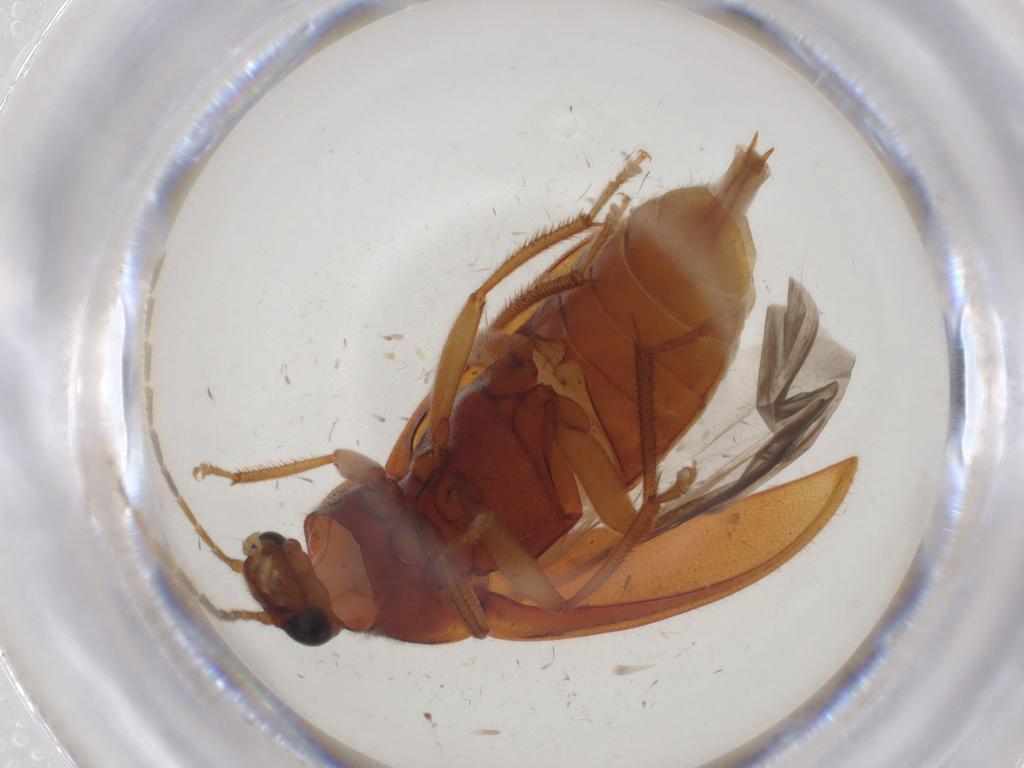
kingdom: Animalia
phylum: Arthropoda
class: Insecta
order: Coleoptera
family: Ptilodactylidae
